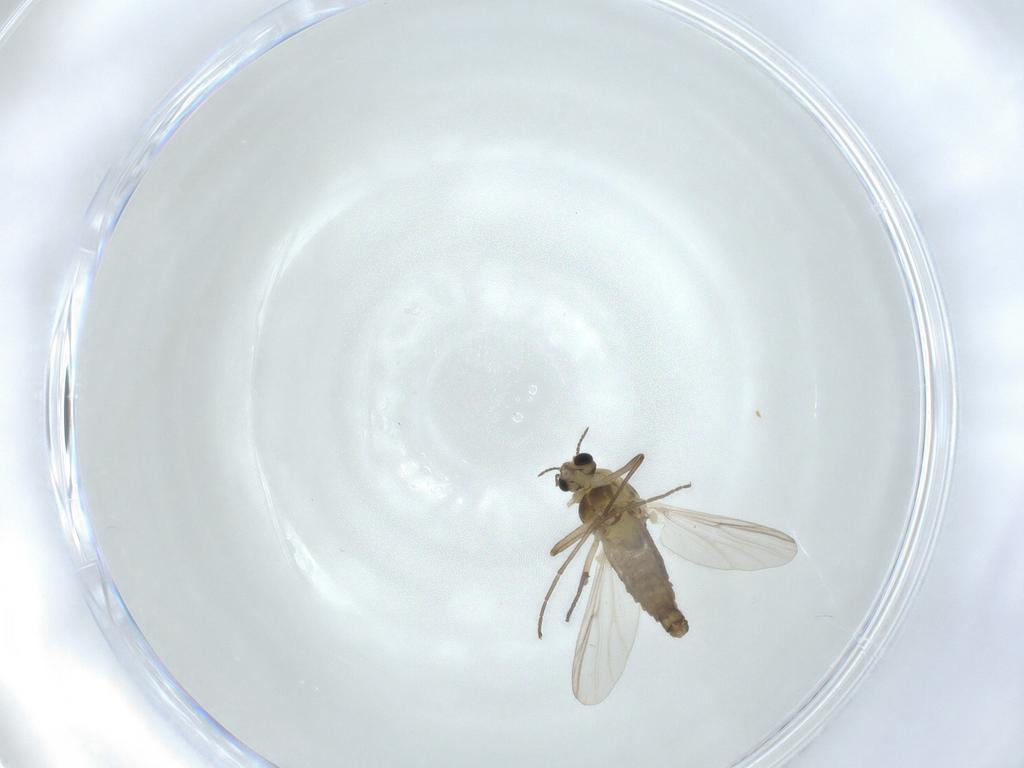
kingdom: Animalia
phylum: Arthropoda
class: Insecta
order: Diptera
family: Chironomidae
